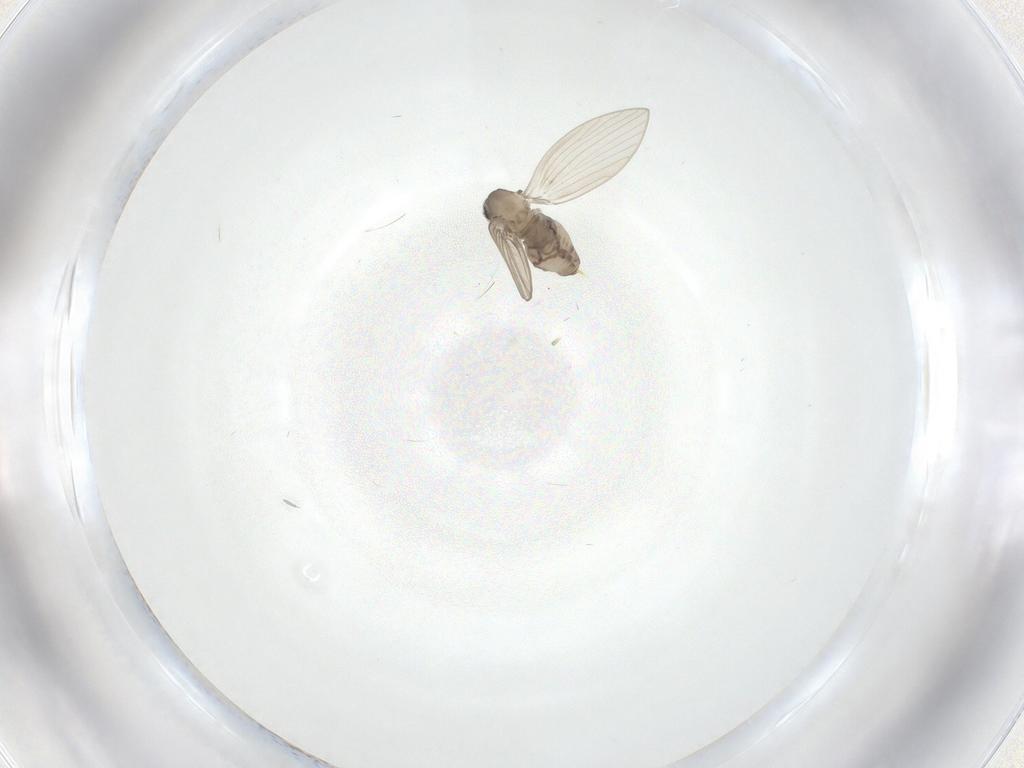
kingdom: Animalia
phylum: Arthropoda
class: Insecta
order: Diptera
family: Psychodidae
